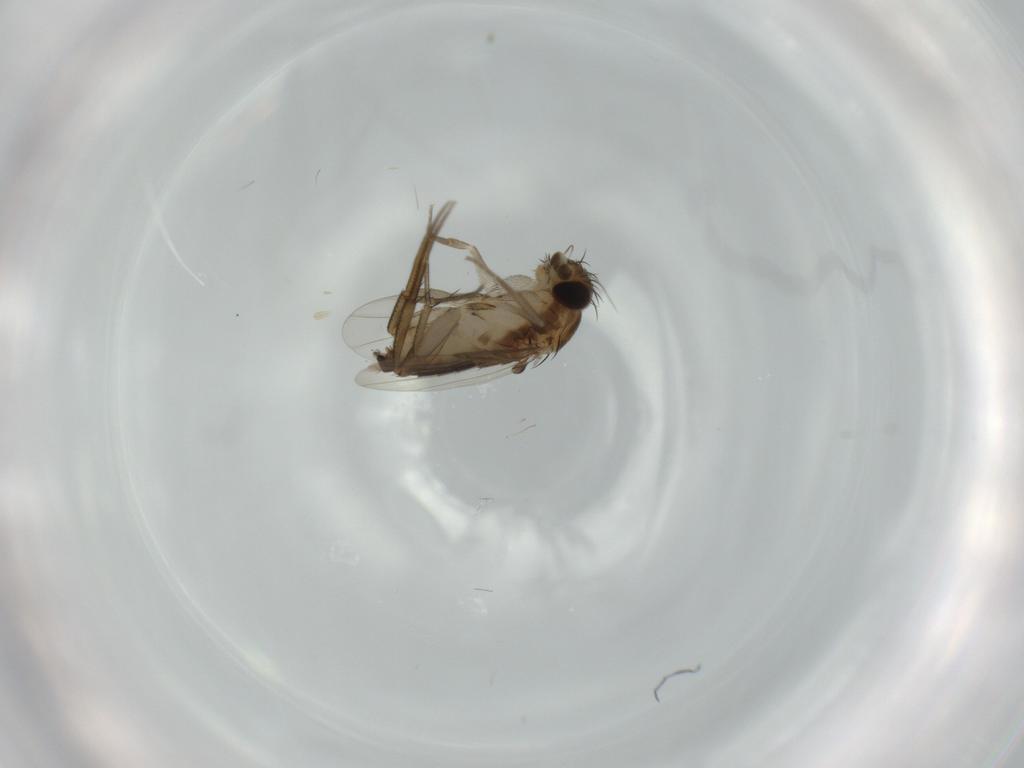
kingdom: Animalia
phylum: Arthropoda
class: Insecta
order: Diptera
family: Phoridae
